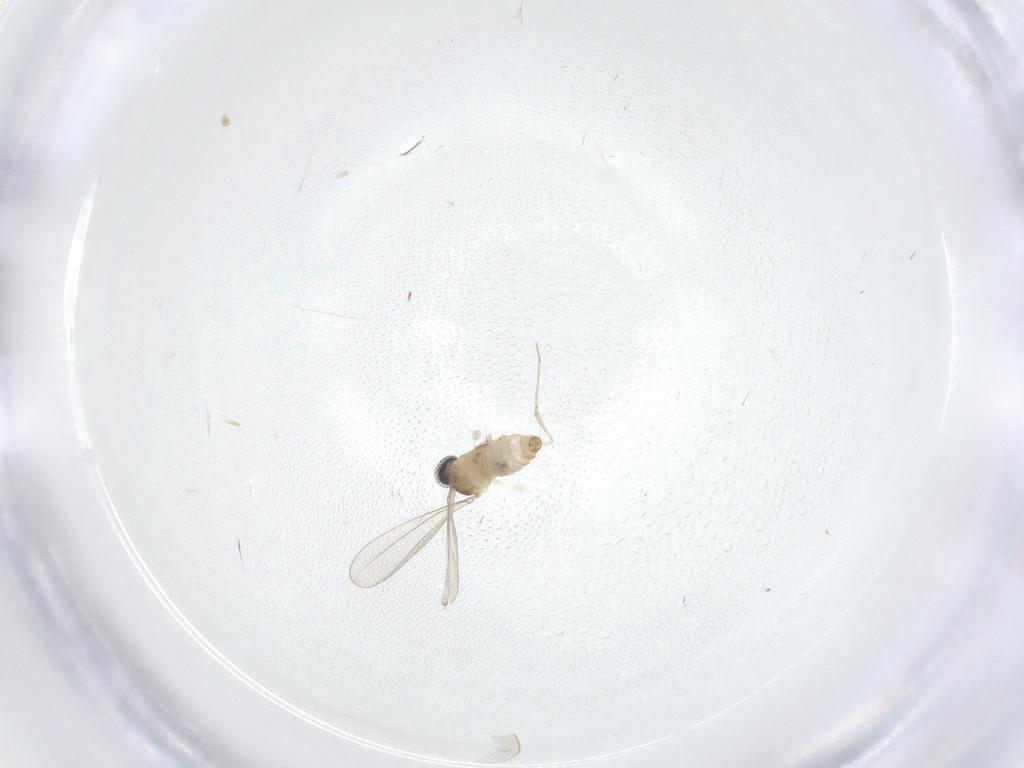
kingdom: Animalia
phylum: Arthropoda
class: Insecta
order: Diptera
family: Cecidomyiidae
